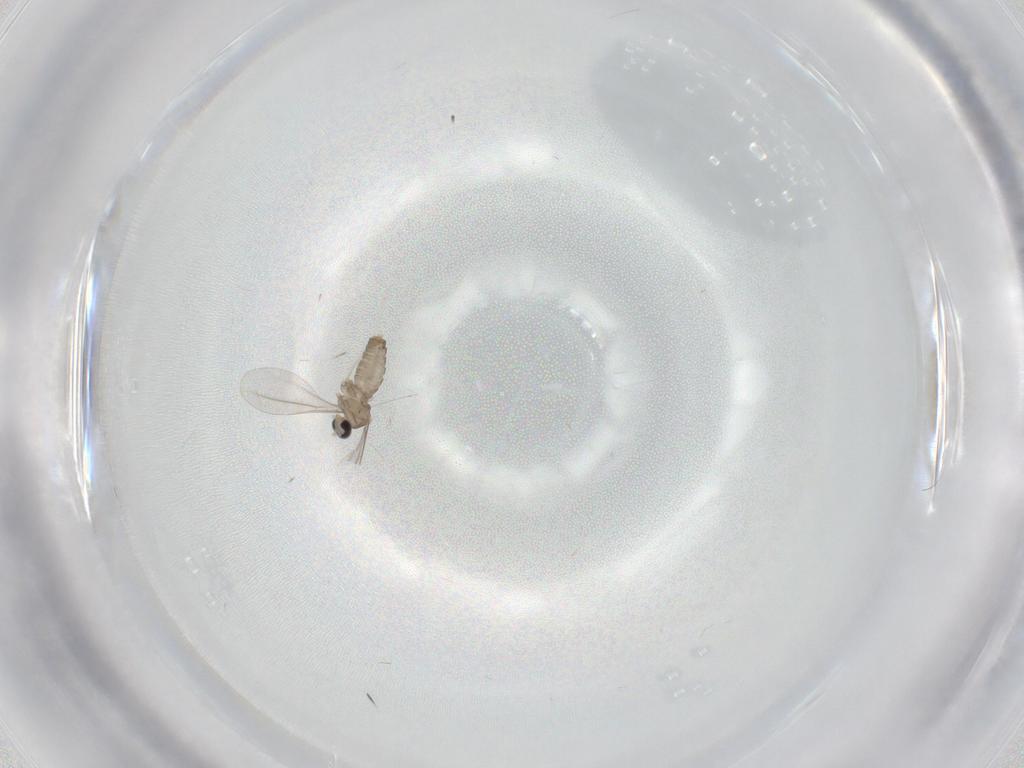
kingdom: Animalia
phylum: Arthropoda
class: Insecta
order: Diptera
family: Cecidomyiidae
